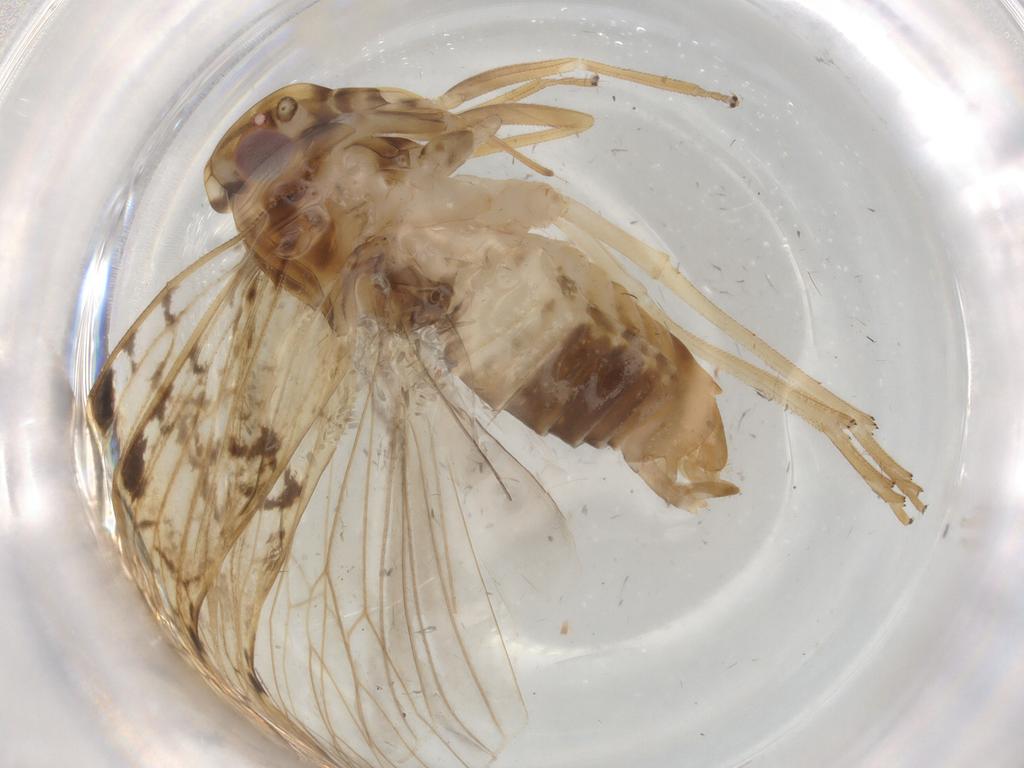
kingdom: Animalia
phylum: Arthropoda
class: Insecta
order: Hemiptera
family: Cixiidae
